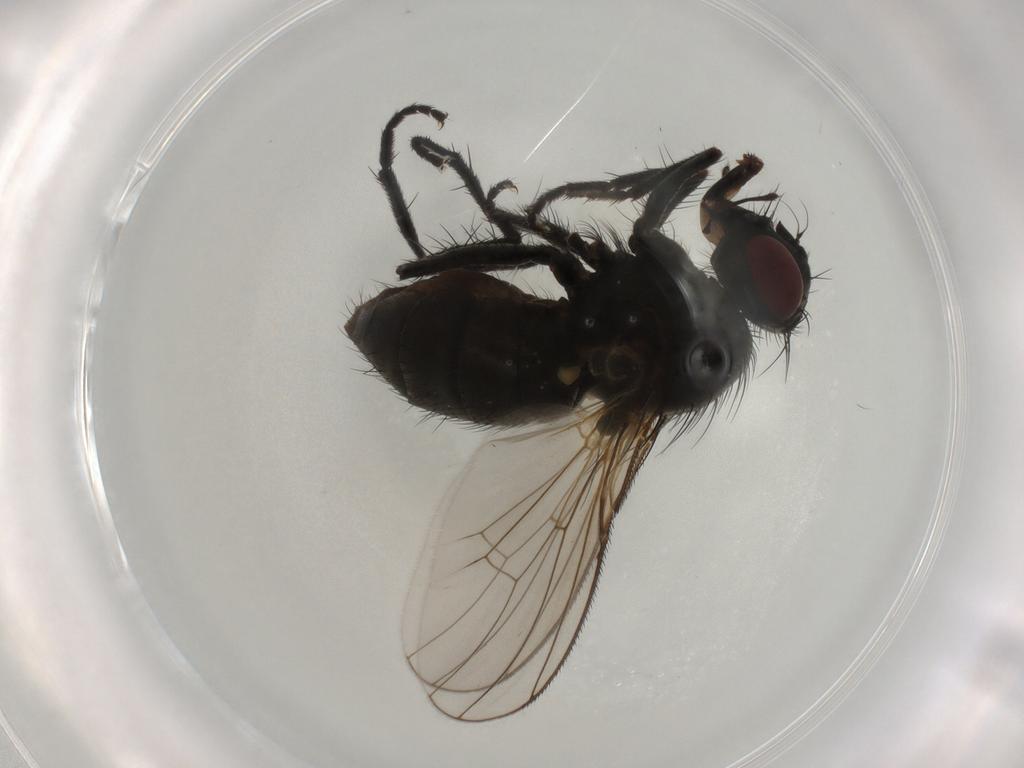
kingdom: Animalia
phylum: Arthropoda
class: Insecta
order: Diptera
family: Muscidae
